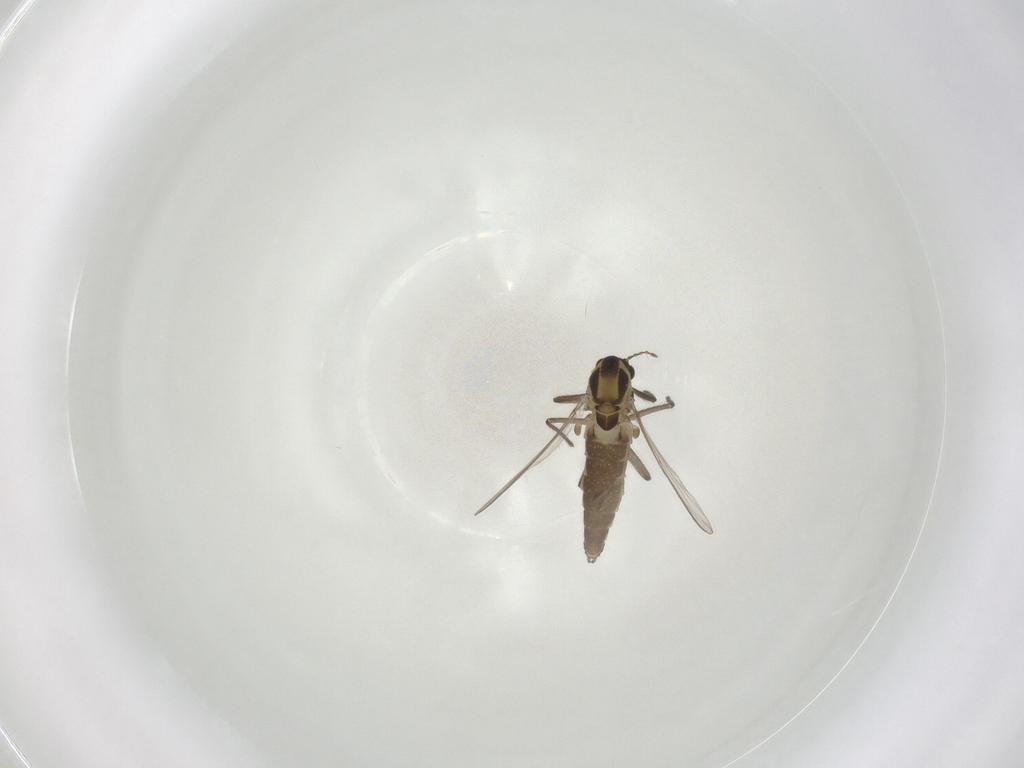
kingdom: Animalia
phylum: Arthropoda
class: Insecta
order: Diptera
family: Psychodidae
